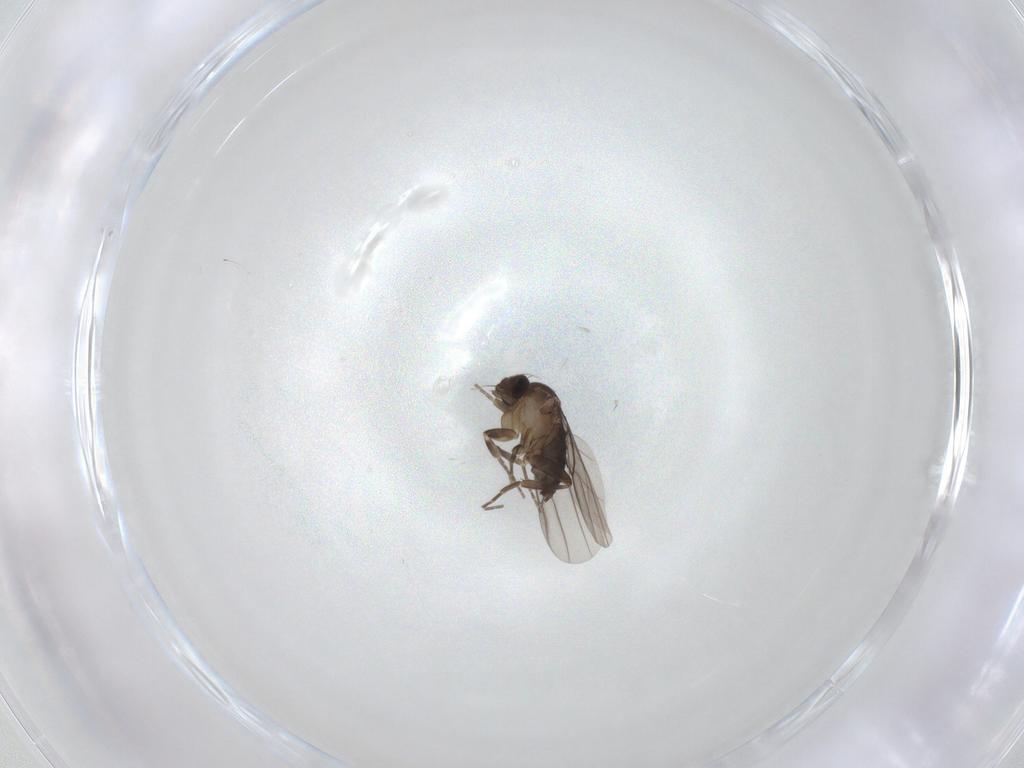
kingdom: Animalia
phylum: Arthropoda
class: Insecta
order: Diptera
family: Phoridae
